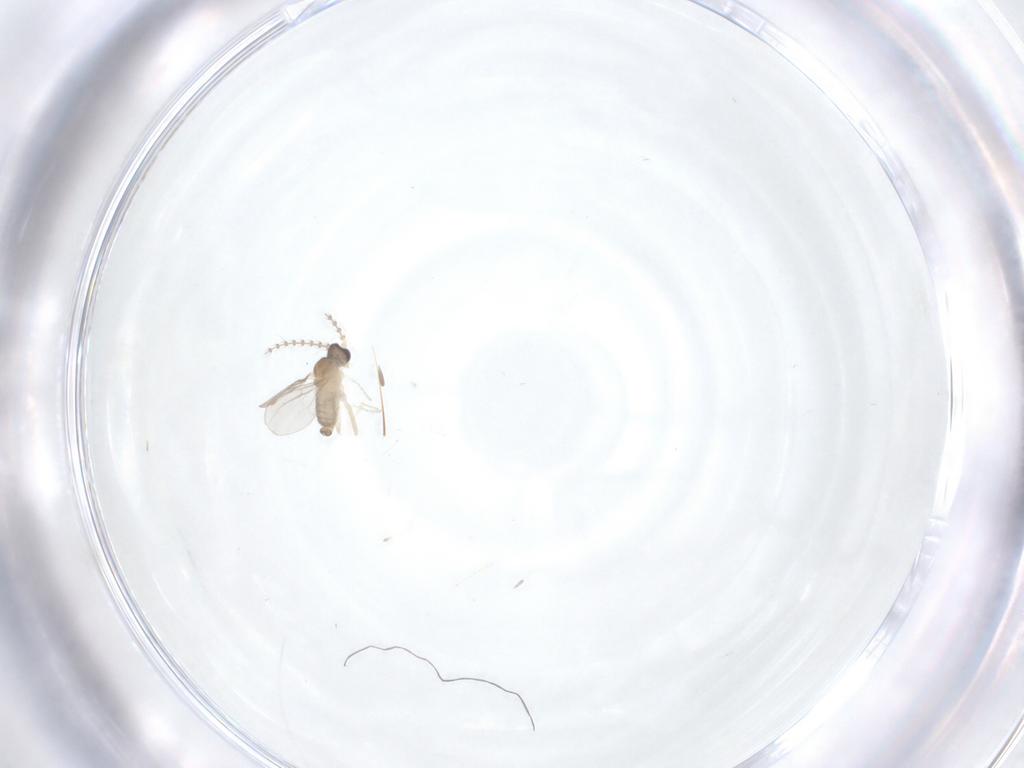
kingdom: Animalia
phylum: Arthropoda
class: Insecta
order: Diptera
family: Cecidomyiidae
